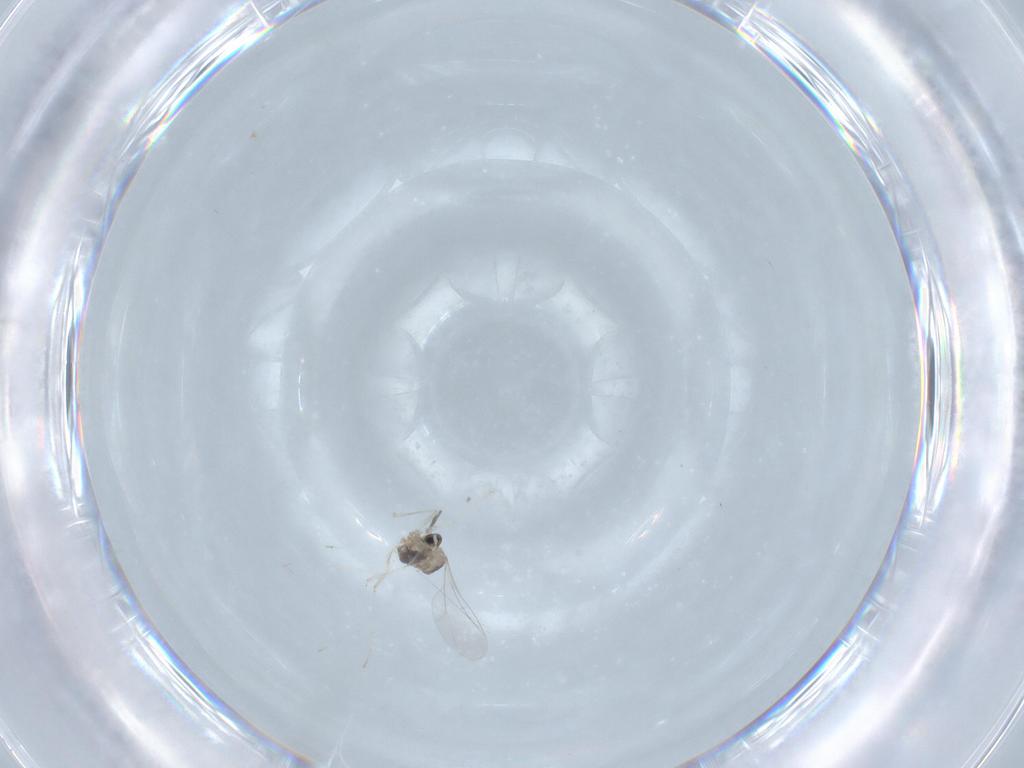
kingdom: Animalia
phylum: Arthropoda
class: Insecta
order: Diptera
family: Cecidomyiidae
